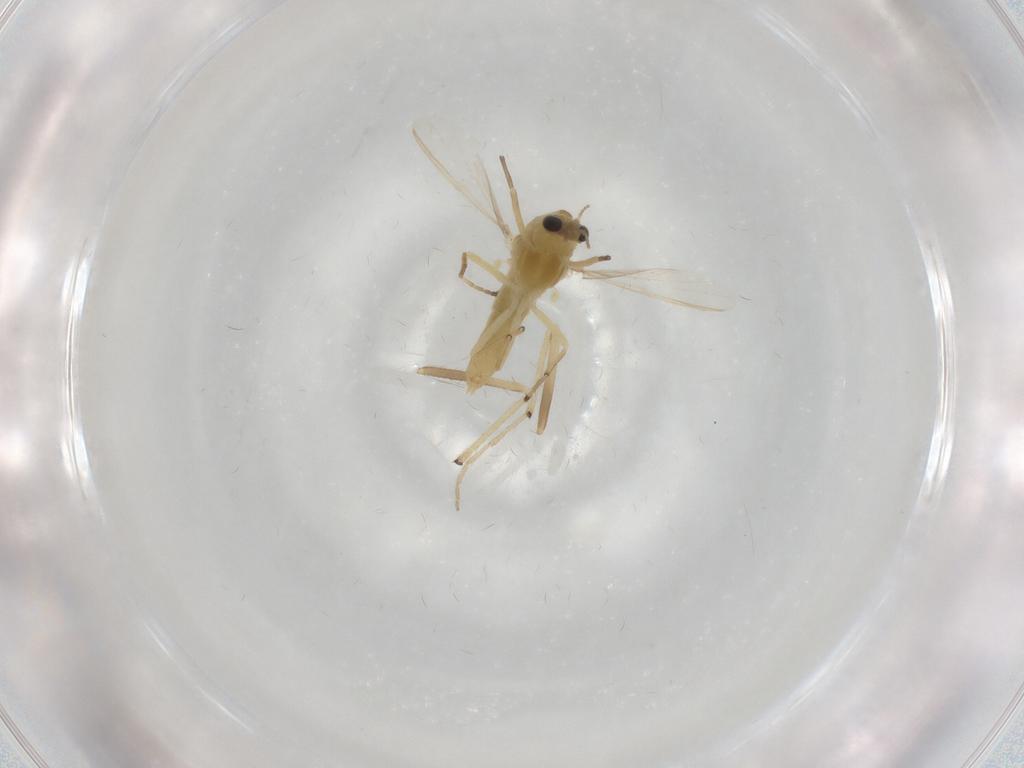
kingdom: Animalia
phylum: Arthropoda
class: Insecta
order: Diptera
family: Chironomidae
